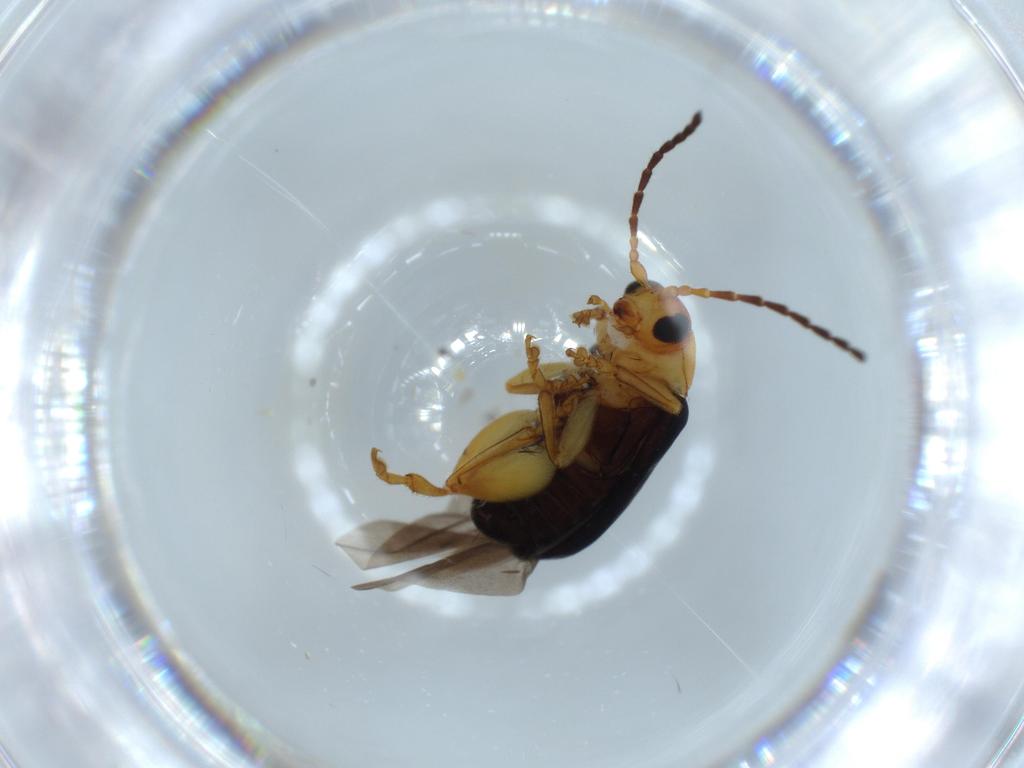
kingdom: Animalia
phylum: Arthropoda
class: Insecta
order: Coleoptera
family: Chrysomelidae
